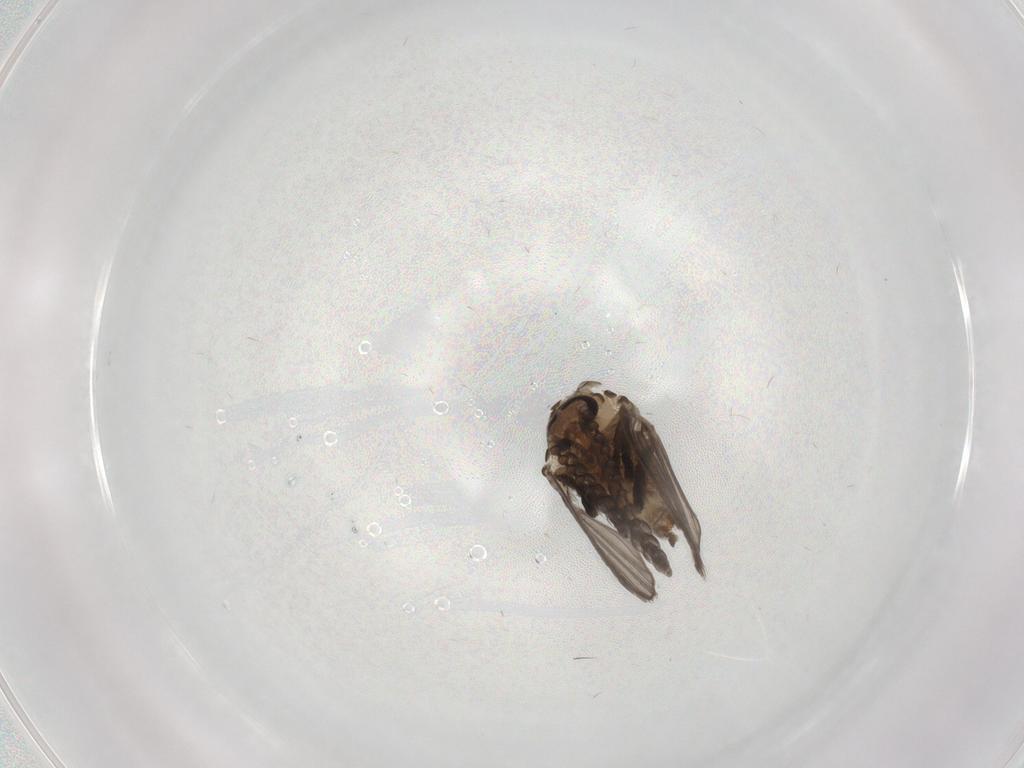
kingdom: Animalia
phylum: Arthropoda
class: Insecta
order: Diptera
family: Psychodidae
